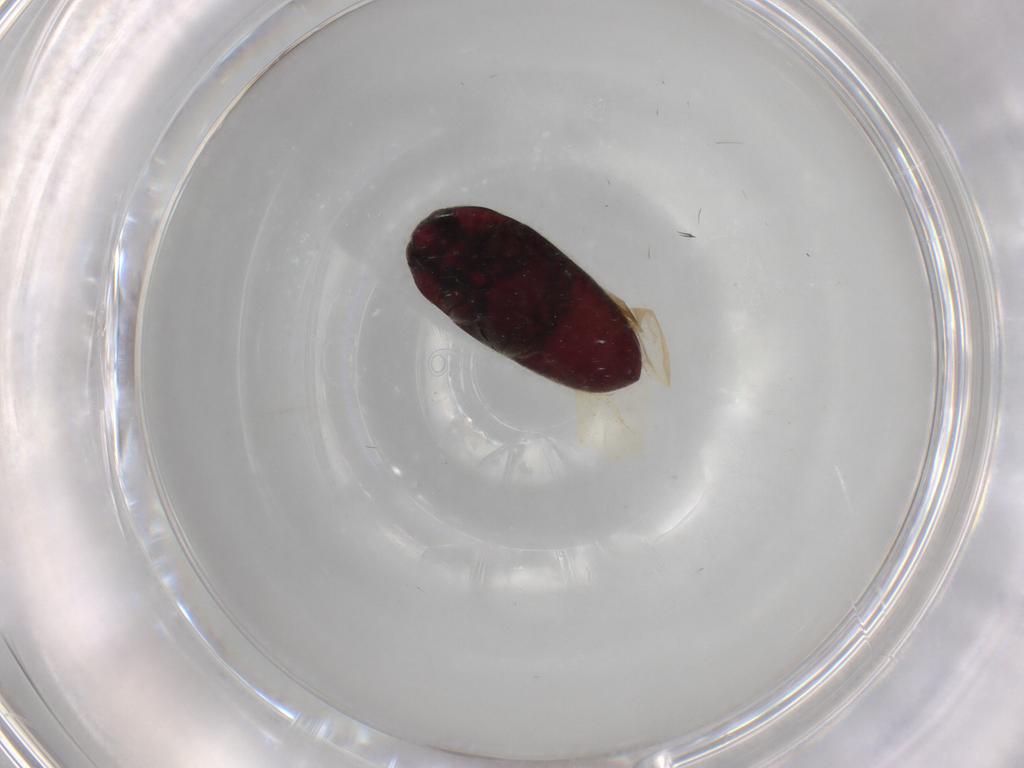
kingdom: Animalia
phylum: Arthropoda
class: Insecta
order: Coleoptera
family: Throscidae
